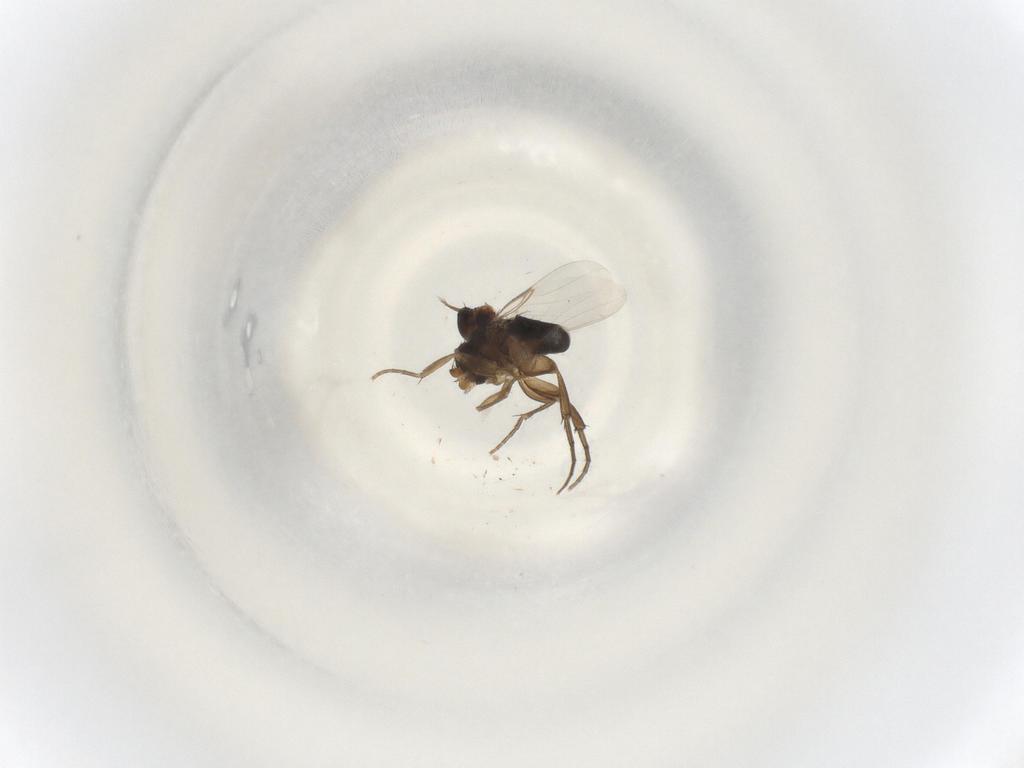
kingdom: Animalia
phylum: Arthropoda
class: Insecta
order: Diptera
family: Phoridae
